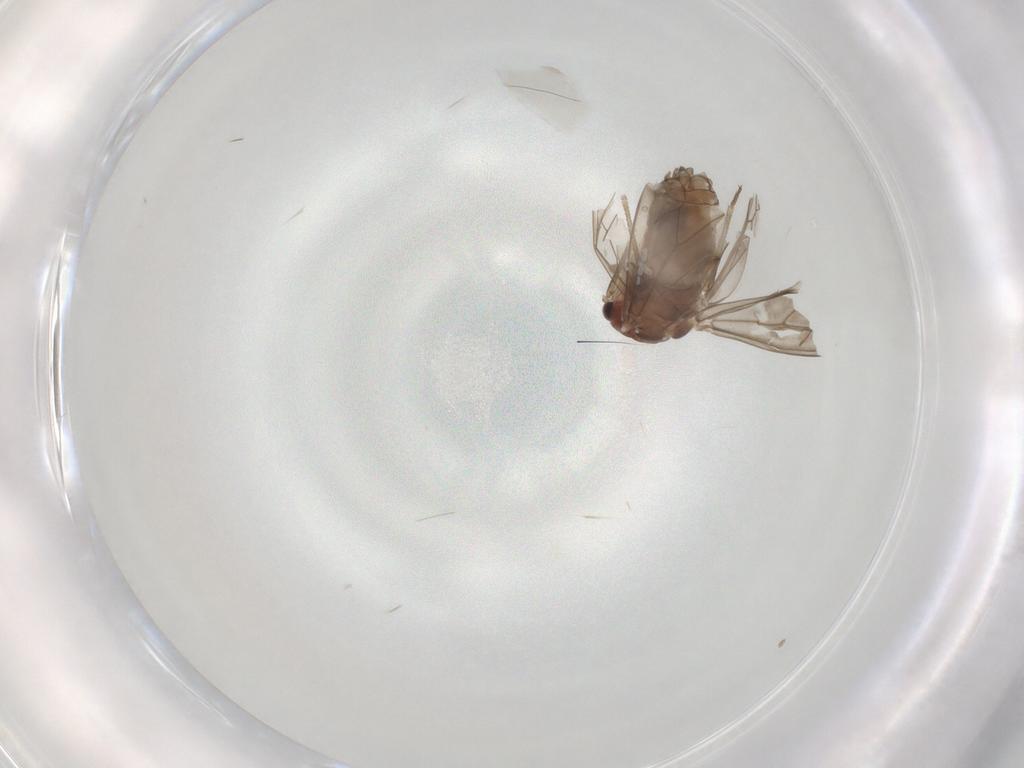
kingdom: Animalia
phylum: Arthropoda
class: Insecta
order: Psocodea
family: Peripsocidae
